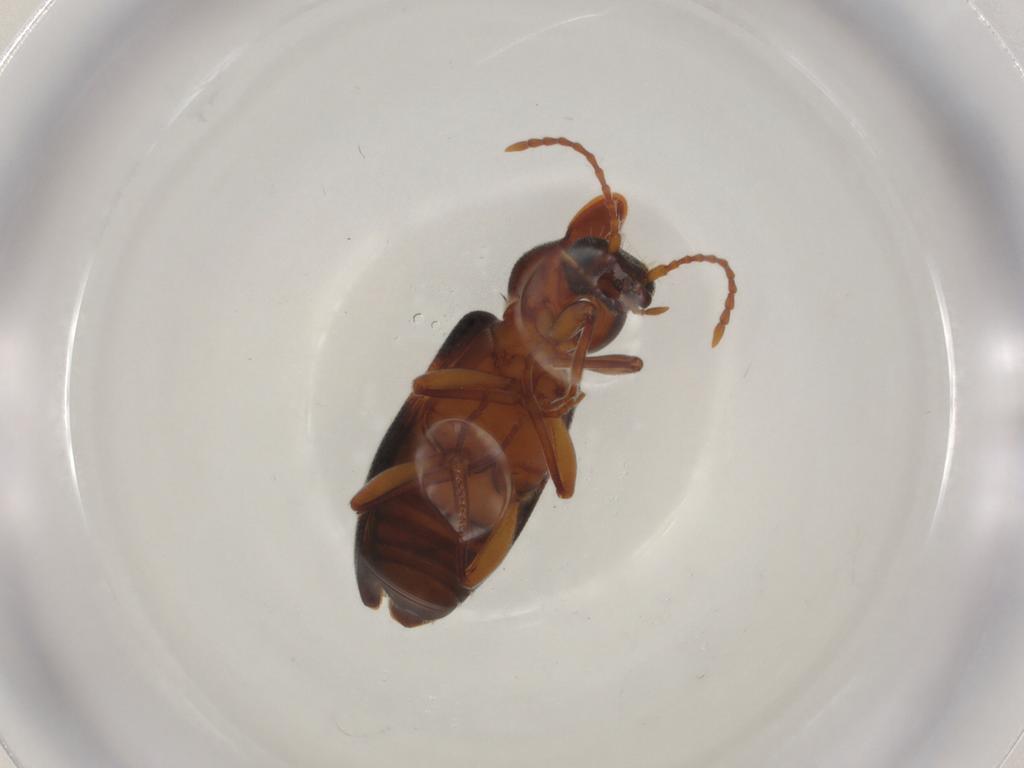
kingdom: Animalia
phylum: Arthropoda
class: Insecta
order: Coleoptera
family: Anthicidae
